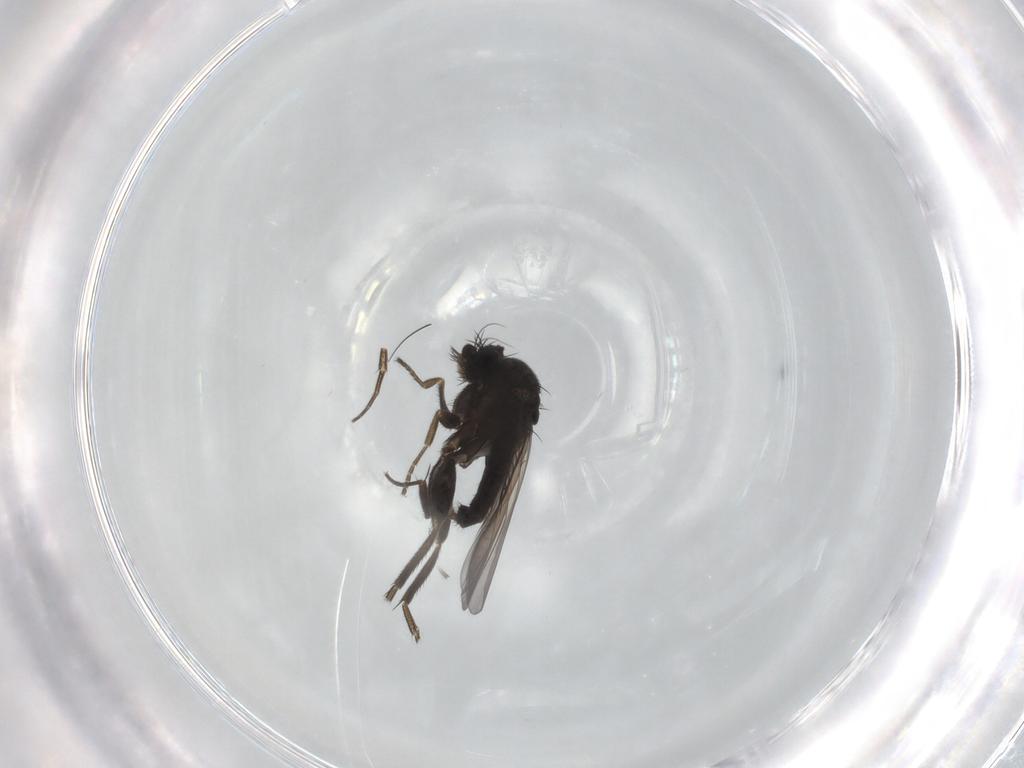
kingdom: Animalia
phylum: Arthropoda
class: Insecta
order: Diptera
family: Phoridae
